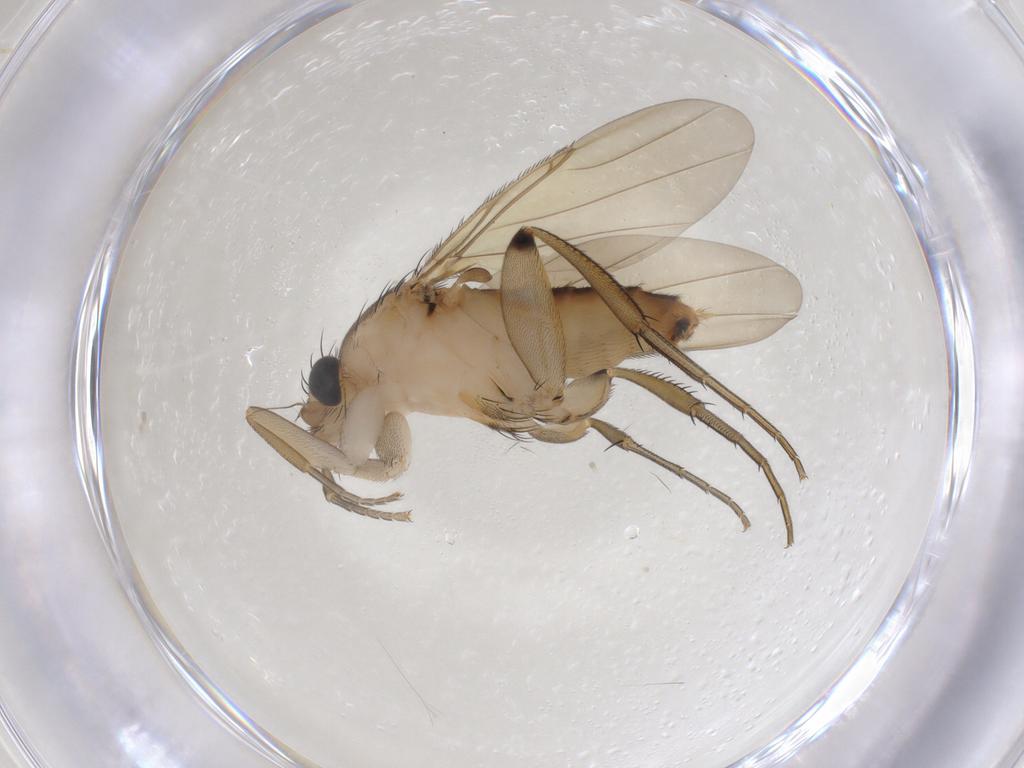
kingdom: Animalia
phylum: Arthropoda
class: Insecta
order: Diptera
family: Phoridae
